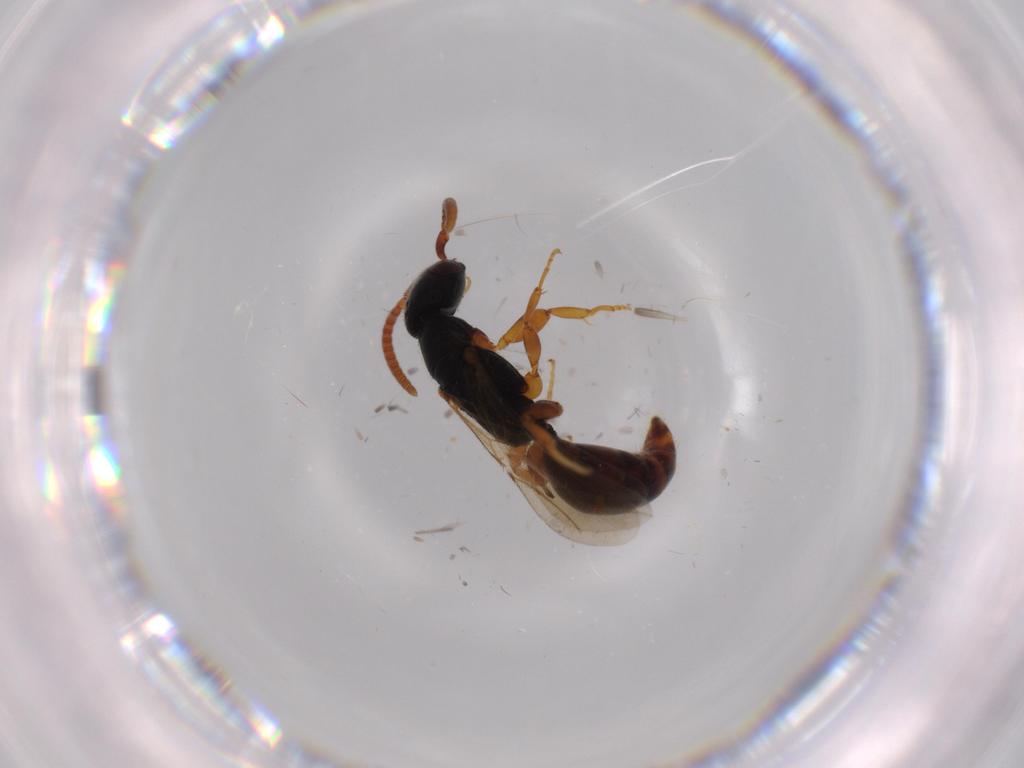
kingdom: Animalia
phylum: Arthropoda
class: Insecta
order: Hymenoptera
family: Bethylidae
